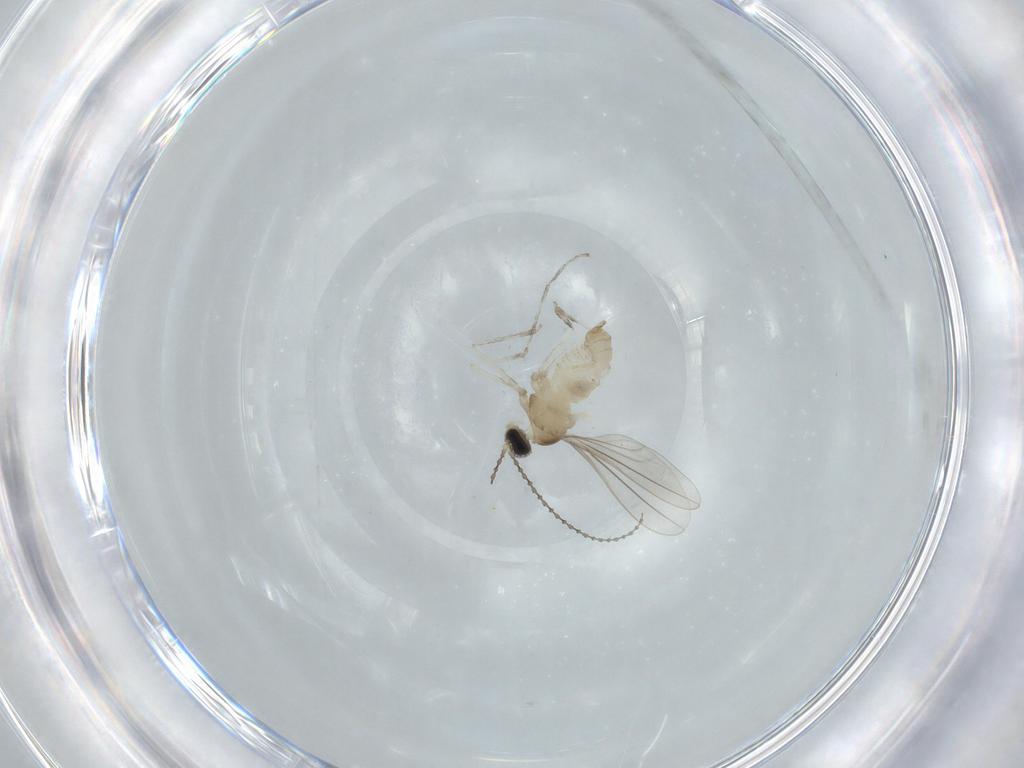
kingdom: Animalia
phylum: Arthropoda
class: Insecta
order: Diptera
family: Cecidomyiidae
